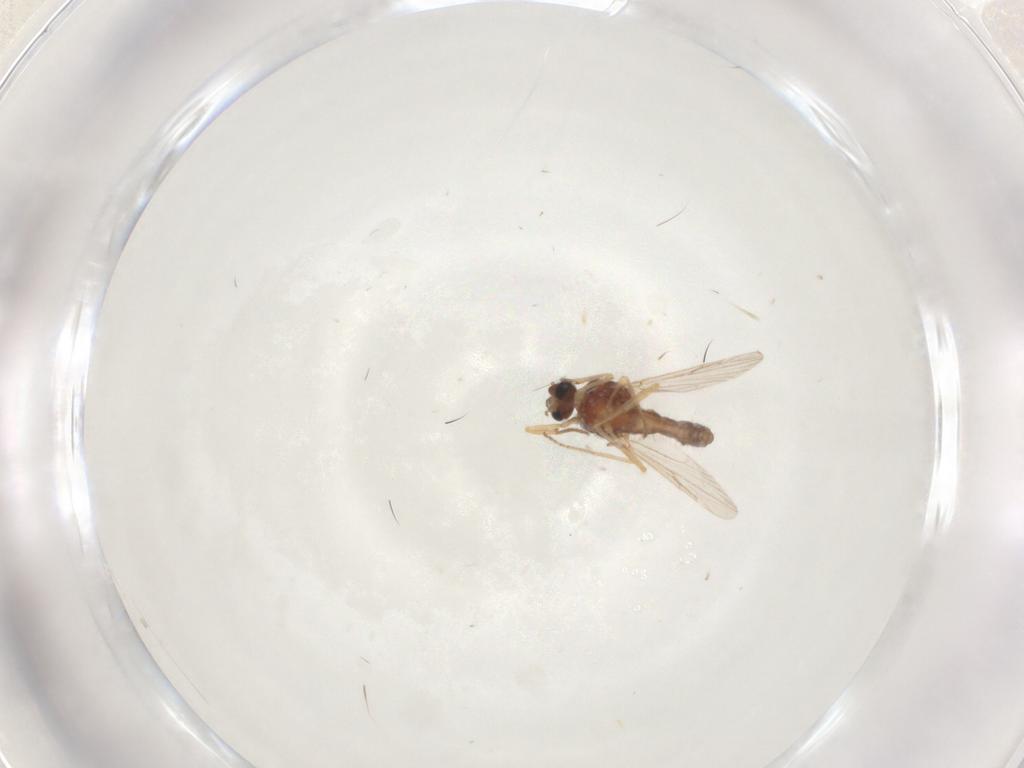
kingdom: Animalia
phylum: Arthropoda
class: Insecta
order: Diptera
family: Ceratopogonidae
